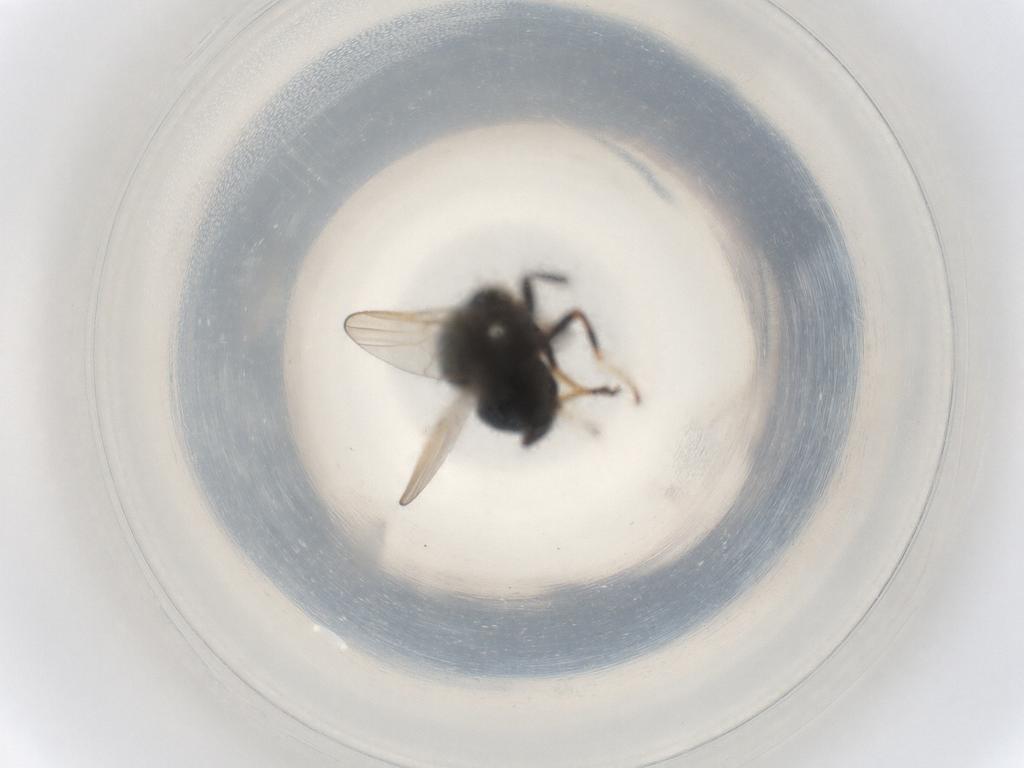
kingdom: Animalia
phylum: Arthropoda
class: Insecta
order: Diptera
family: Chloropidae
